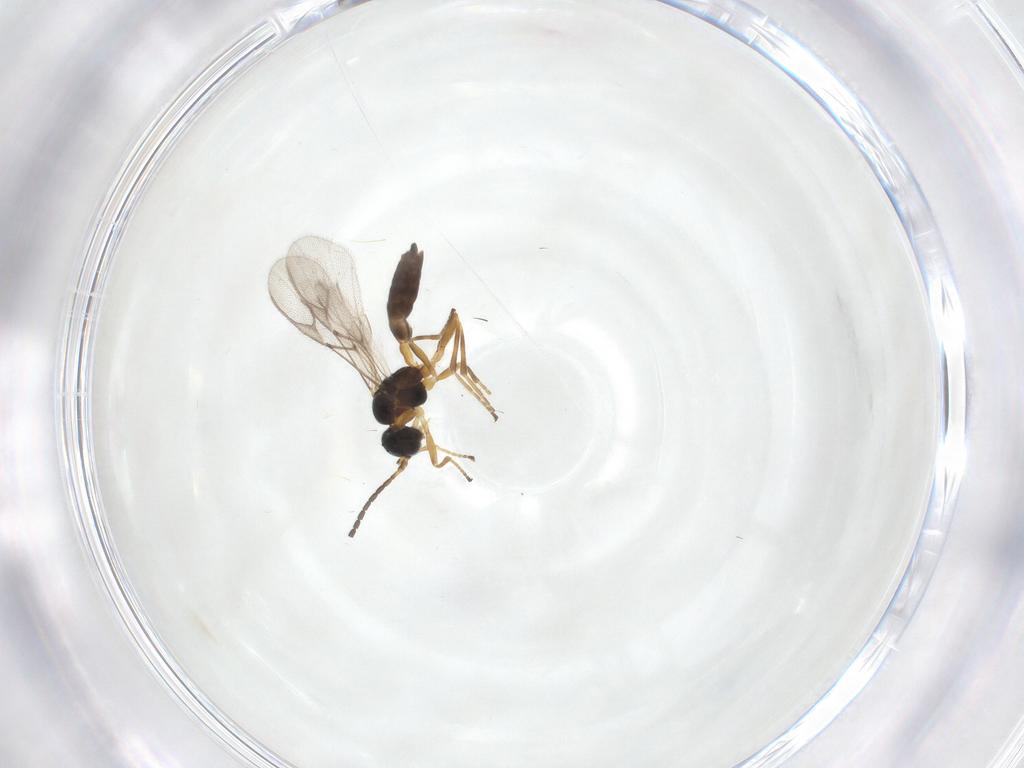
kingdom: Animalia
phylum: Arthropoda
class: Insecta
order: Hymenoptera
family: Braconidae
